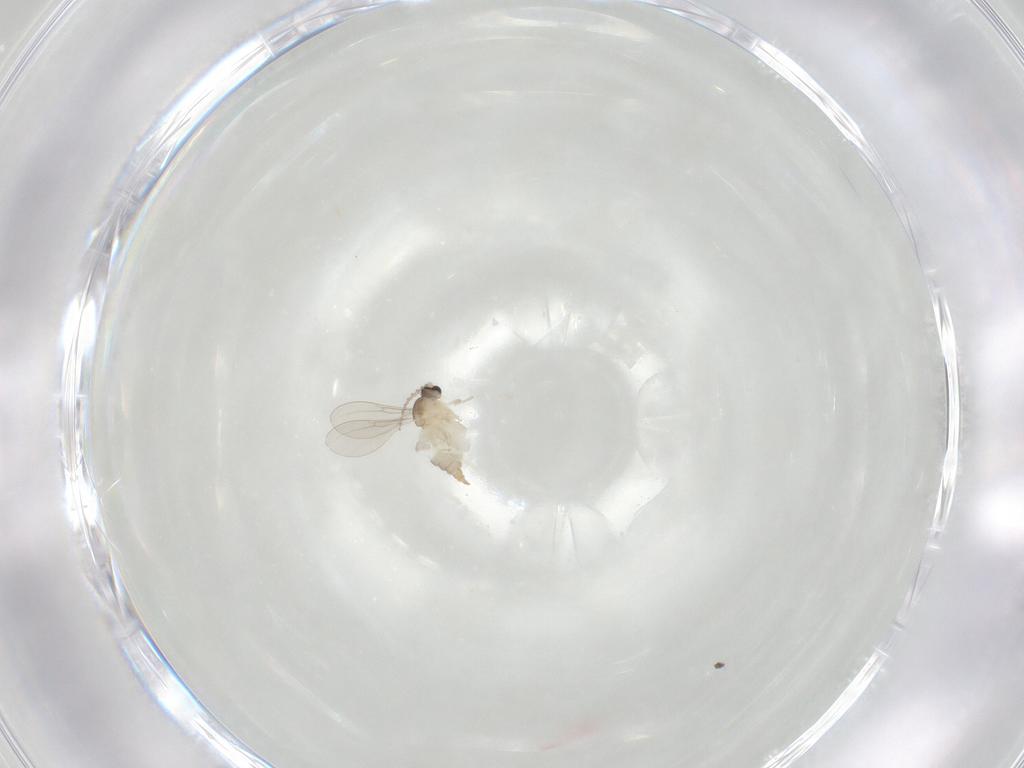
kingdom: Animalia
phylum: Arthropoda
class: Insecta
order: Diptera
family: Cecidomyiidae
